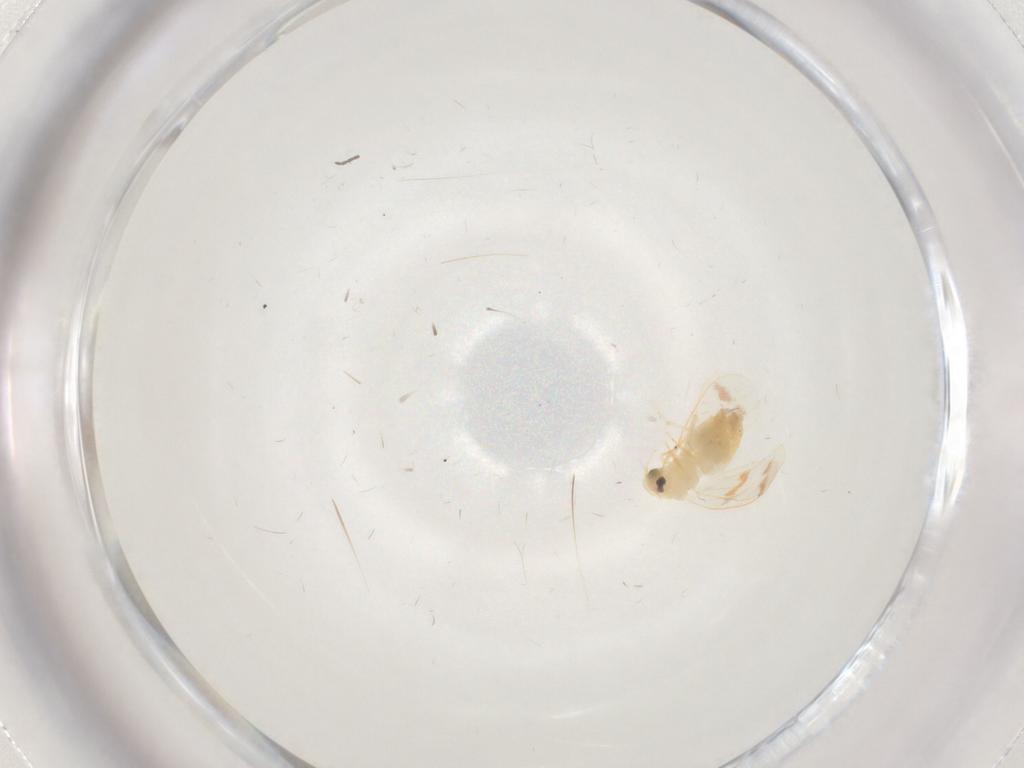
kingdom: Animalia
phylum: Arthropoda
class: Insecta
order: Hemiptera
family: Aleyrodidae
